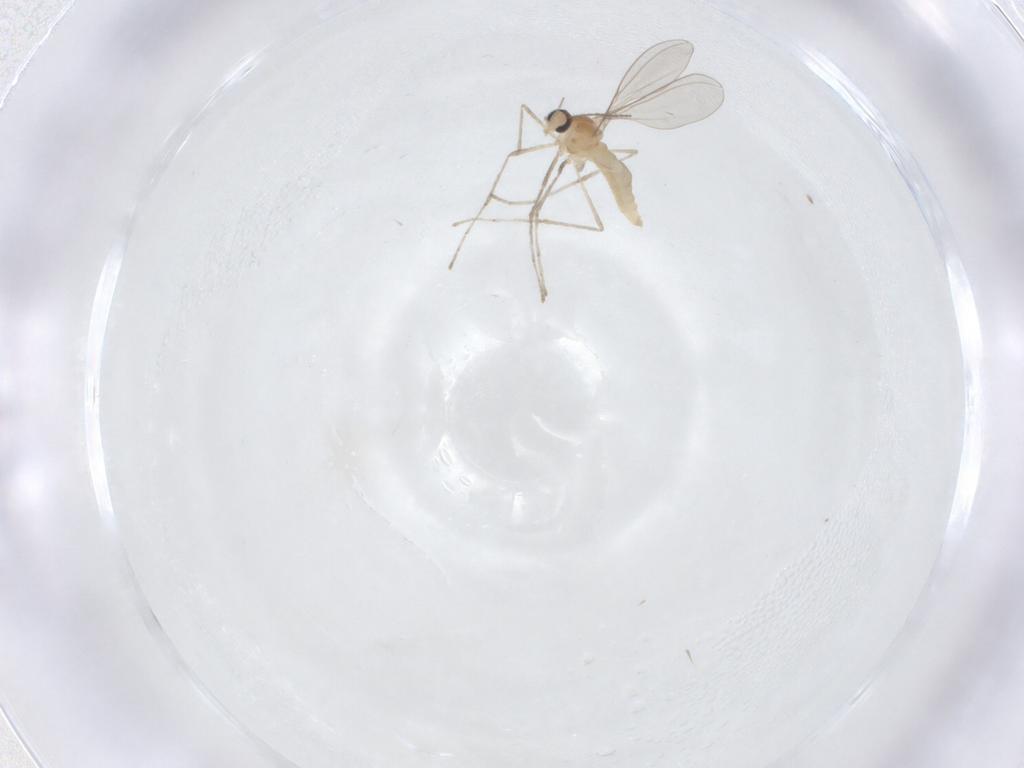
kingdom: Animalia
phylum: Arthropoda
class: Insecta
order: Diptera
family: Cecidomyiidae
